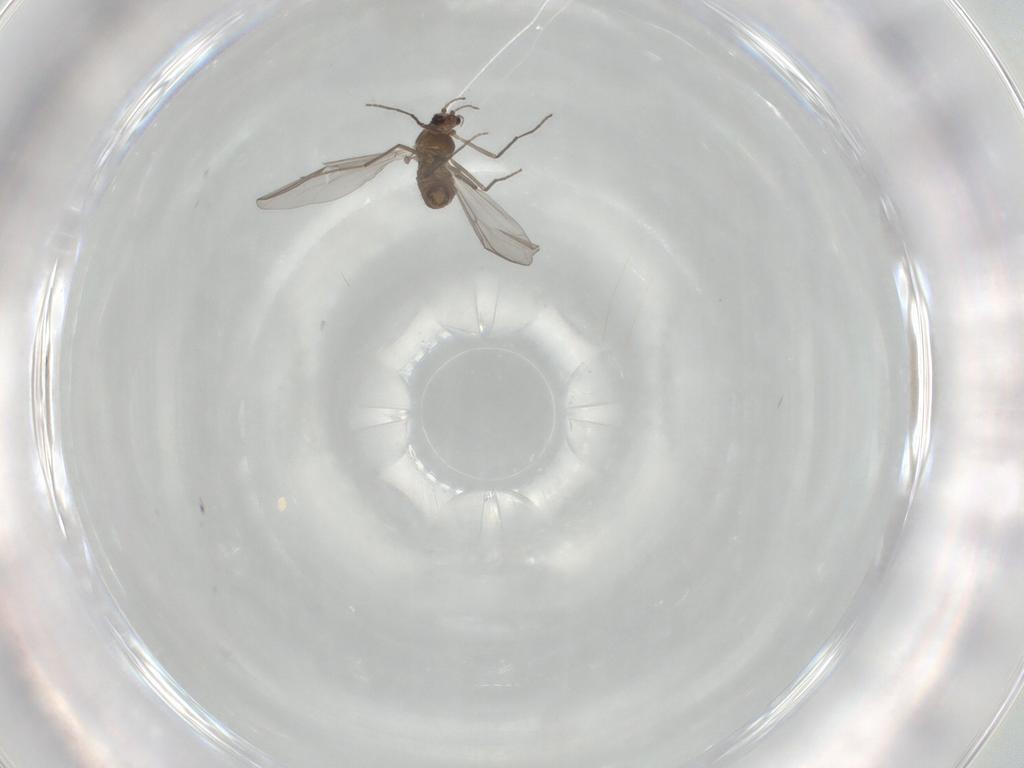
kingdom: Animalia
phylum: Arthropoda
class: Insecta
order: Diptera
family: Chironomidae
